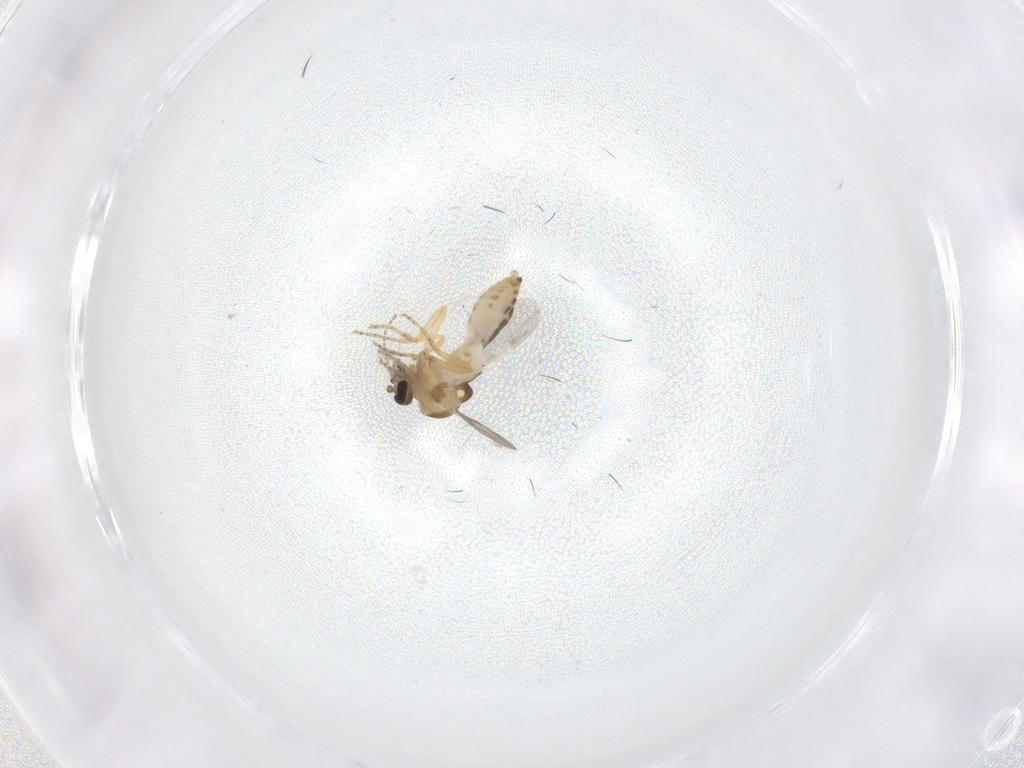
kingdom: Animalia
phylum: Arthropoda
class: Insecta
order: Diptera
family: Ceratopogonidae
